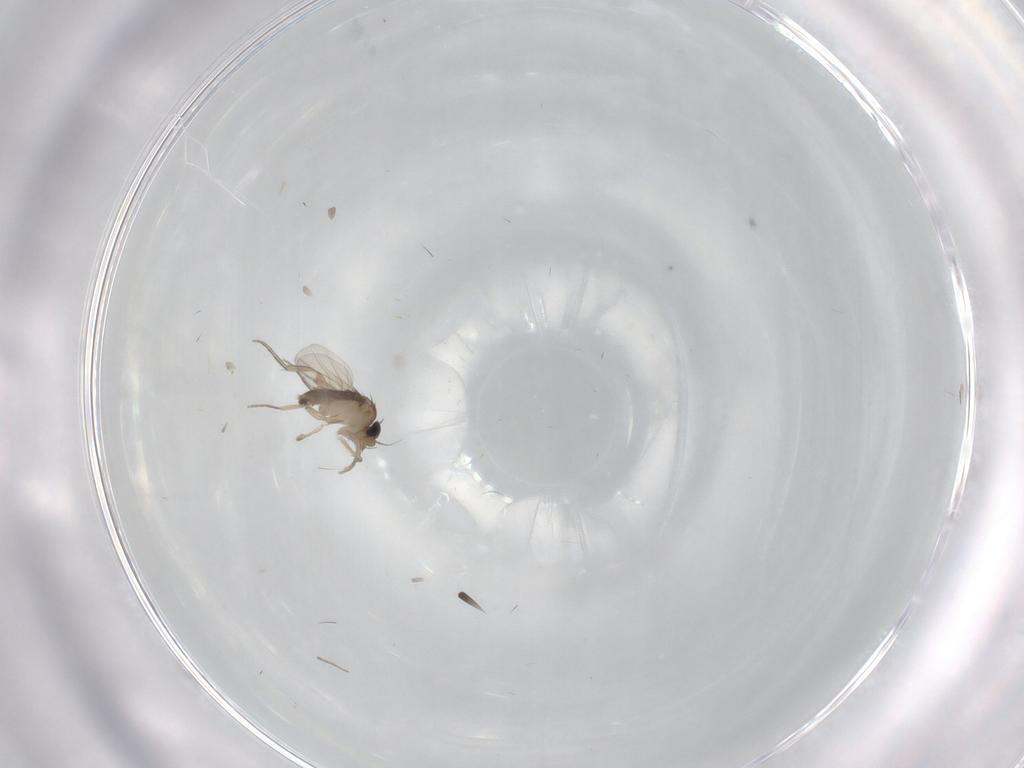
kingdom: Animalia
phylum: Arthropoda
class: Insecta
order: Diptera
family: Phoridae
